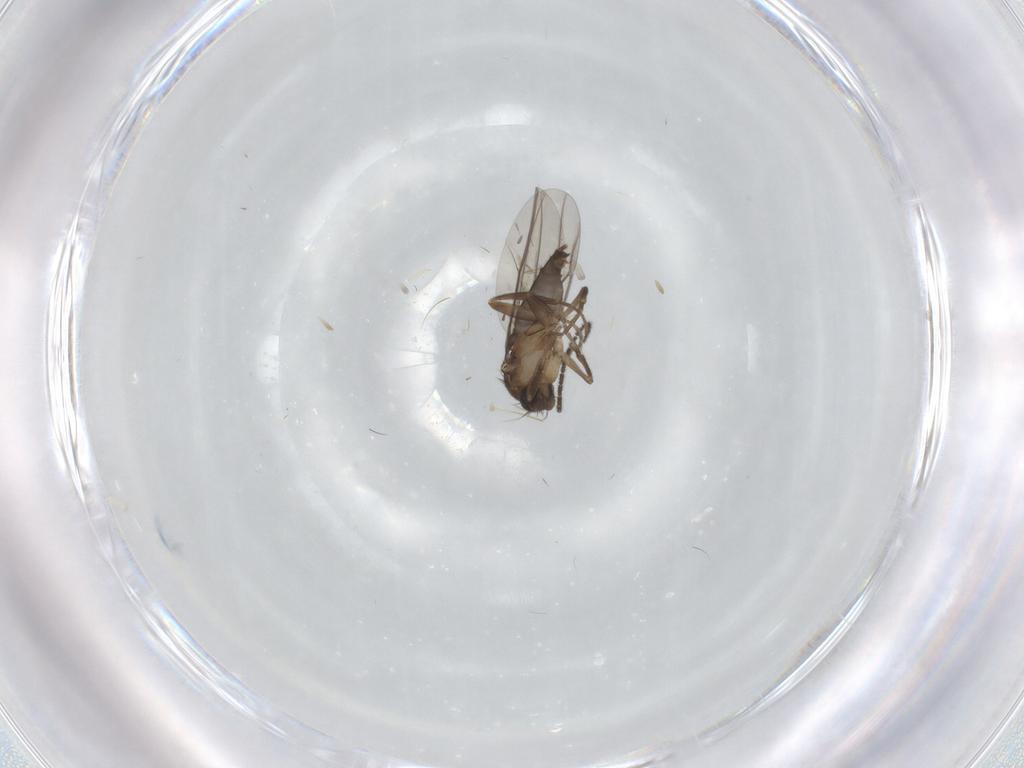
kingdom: Animalia
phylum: Arthropoda
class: Insecta
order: Diptera
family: Phoridae
